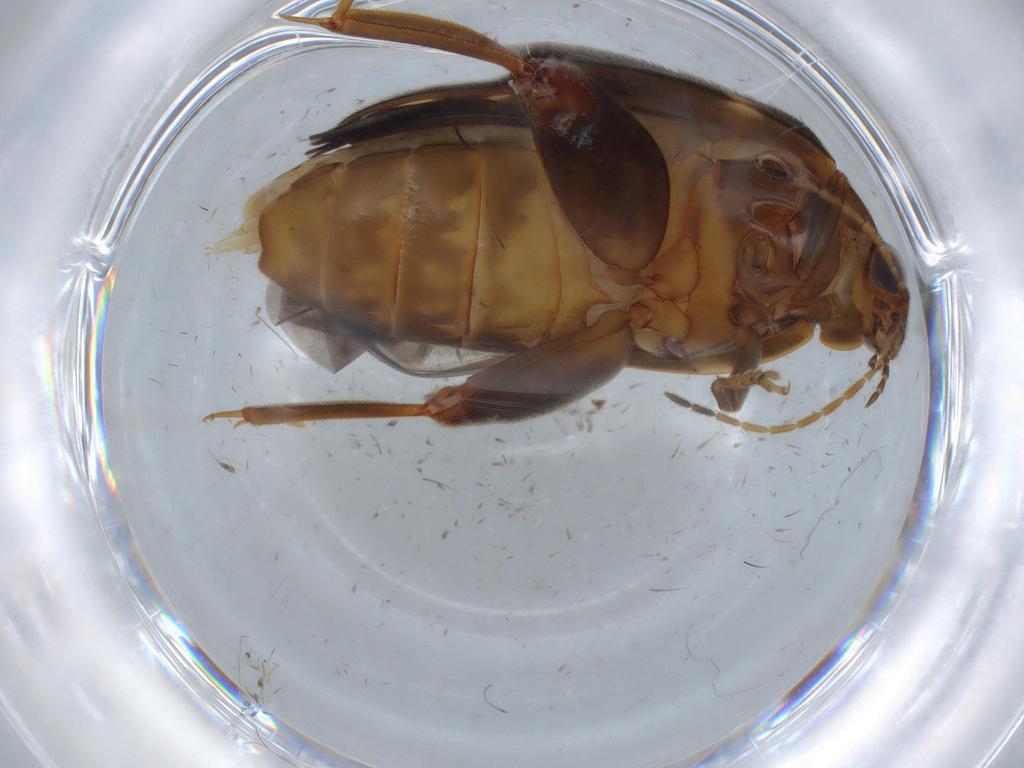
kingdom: Animalia
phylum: Arthropoda
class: Insecta
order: Coleoptera
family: Scirtidae
